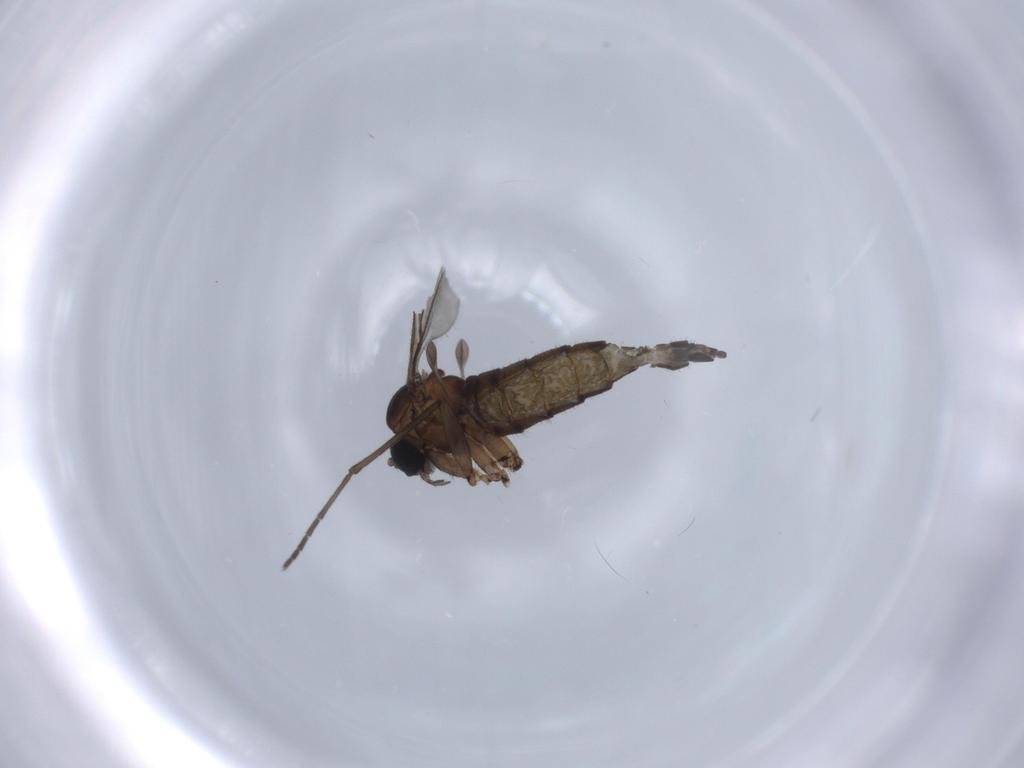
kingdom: Animalia
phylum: Arthropoda
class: Insecta
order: Diptera
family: Sciaridae
